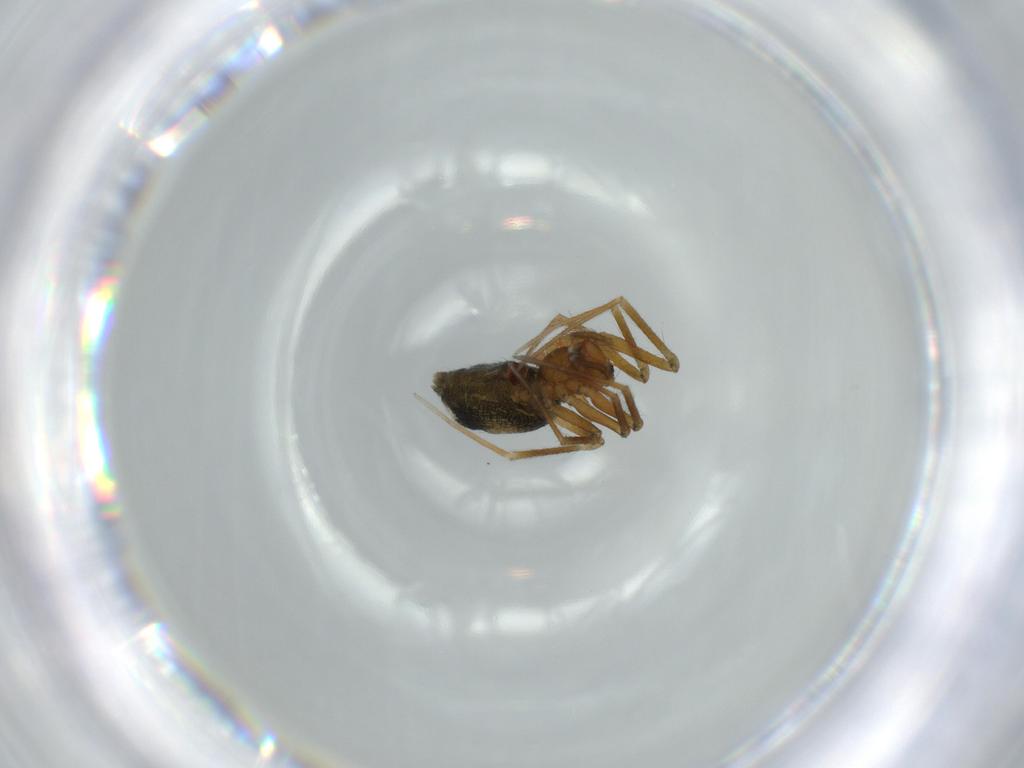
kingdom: Animalia
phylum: Arthropoda
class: Arachnida
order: Araneae
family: Linyphiidae
